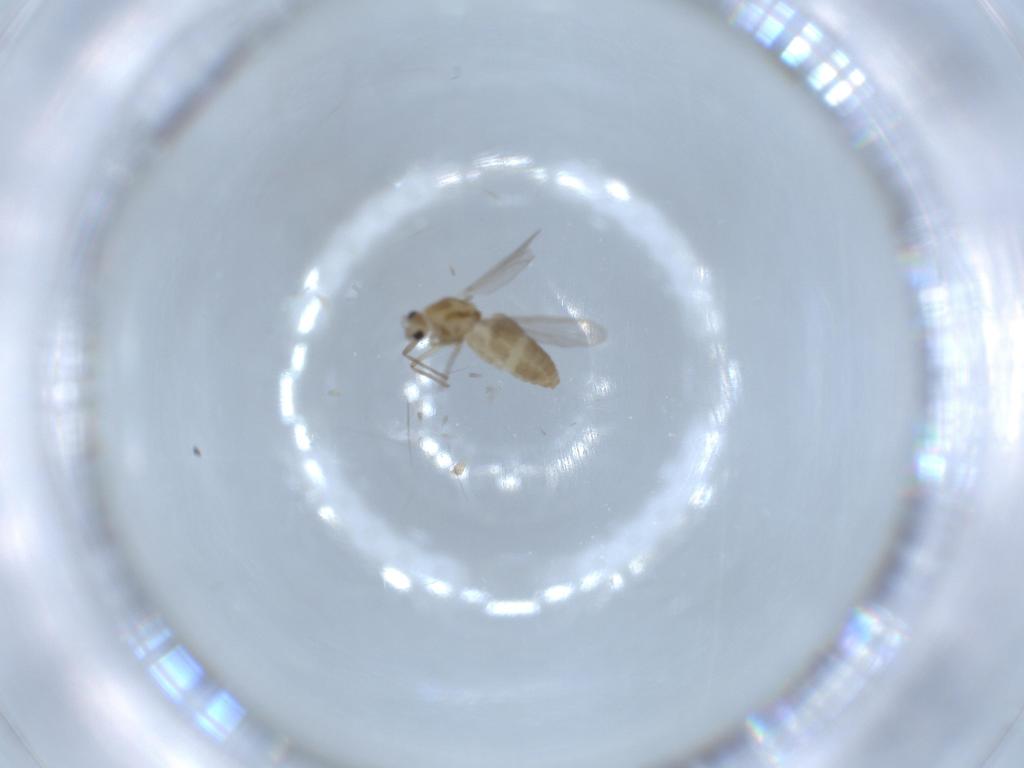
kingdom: Animalia
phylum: Arthropoda
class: Insecta
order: Diptera
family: Chironomidae
